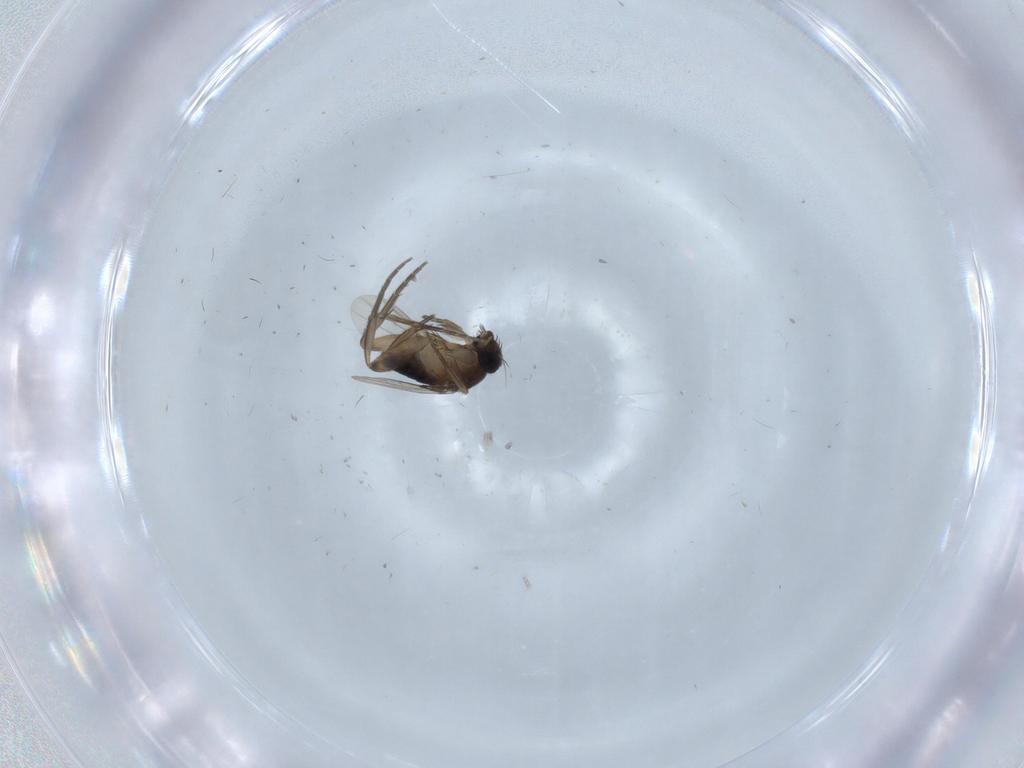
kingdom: Animalia
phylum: Arthropoda
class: Insecta
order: Diptera
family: Phoridae
